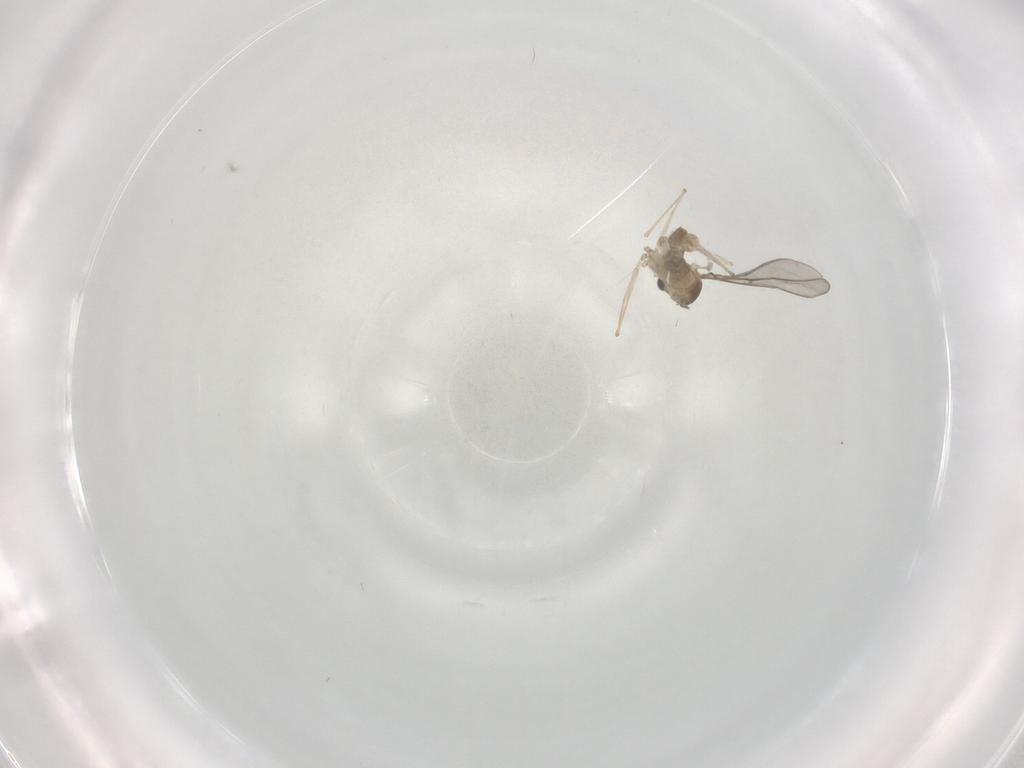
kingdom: Animalia
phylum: Arthropoda
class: Insecta
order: Diptera
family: Cecidomyiidae
